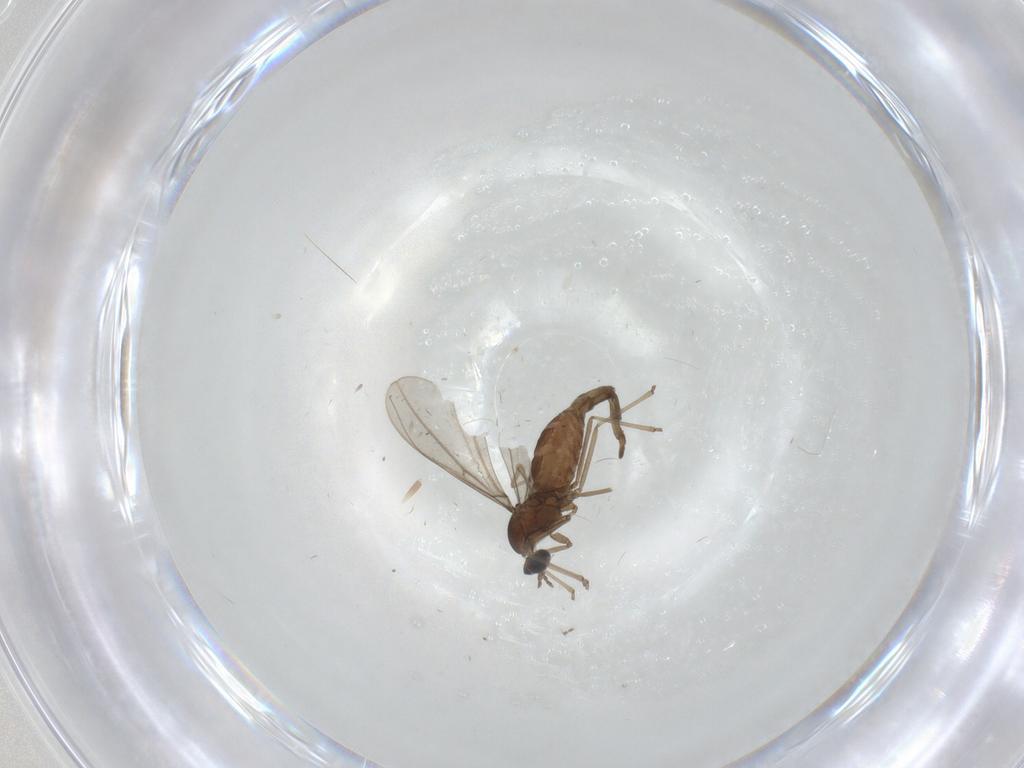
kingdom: Animalia
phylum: Arthropoda
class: Insecta
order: Diptera
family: Cecidomyiidae
